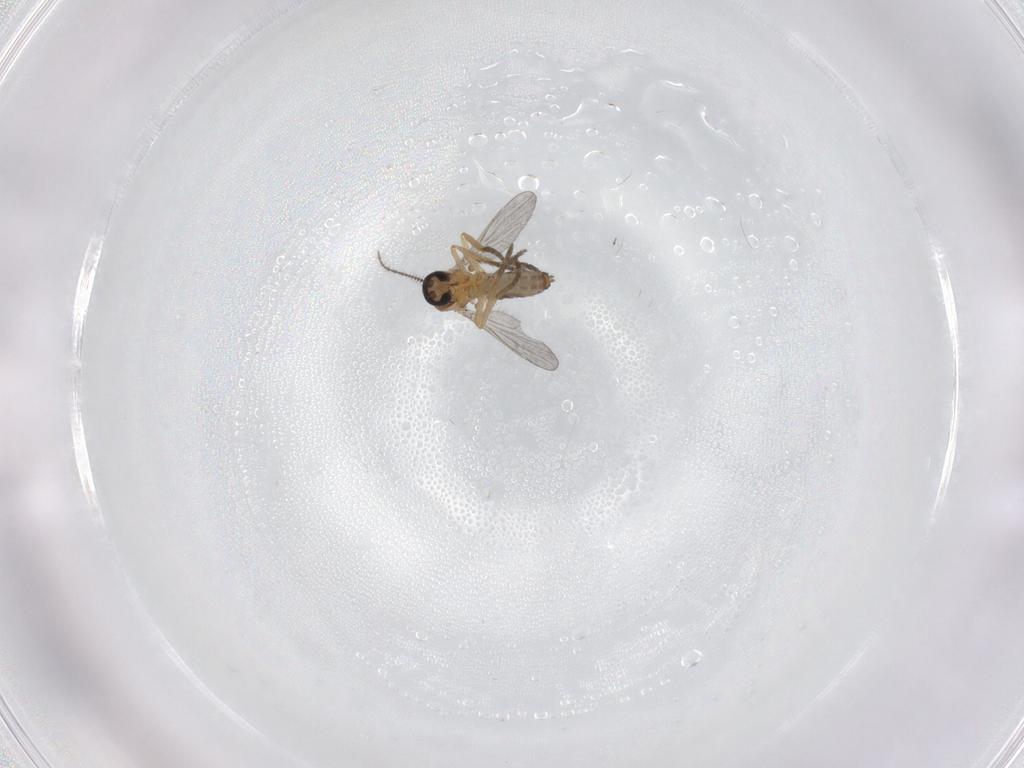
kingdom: Animalia
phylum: Arthropoda
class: Insecta
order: Diptera
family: Ceratopogonidae
